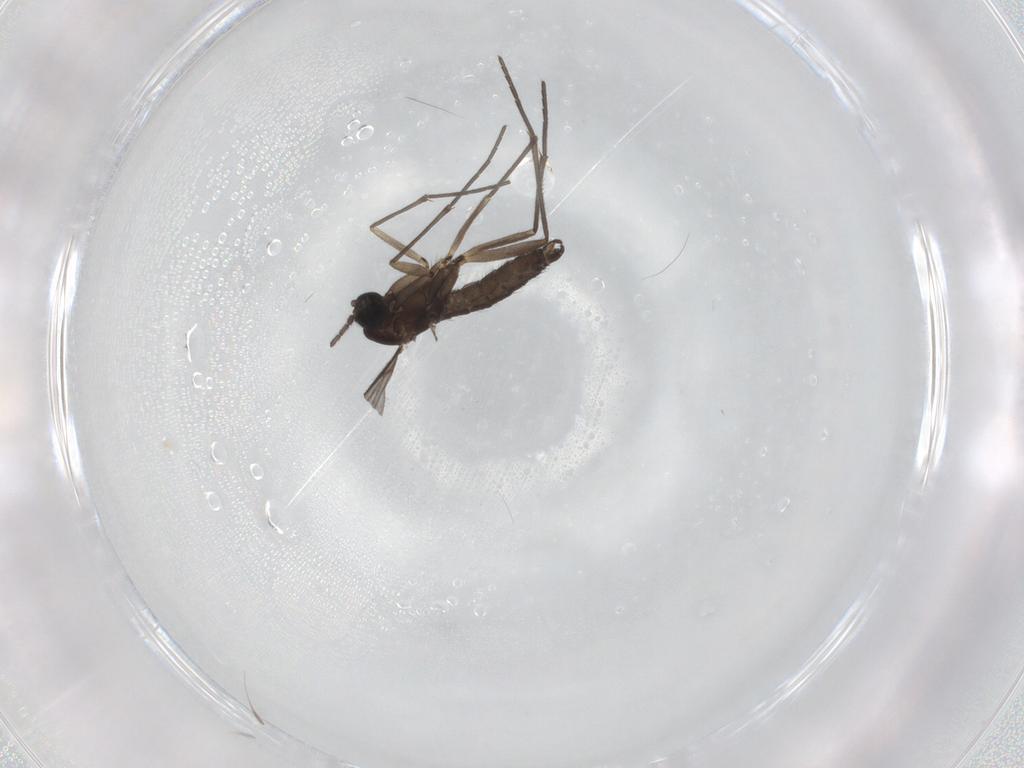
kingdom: Animalia
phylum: Arthropoda
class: Insecta
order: Diptera
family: Sciaridae
